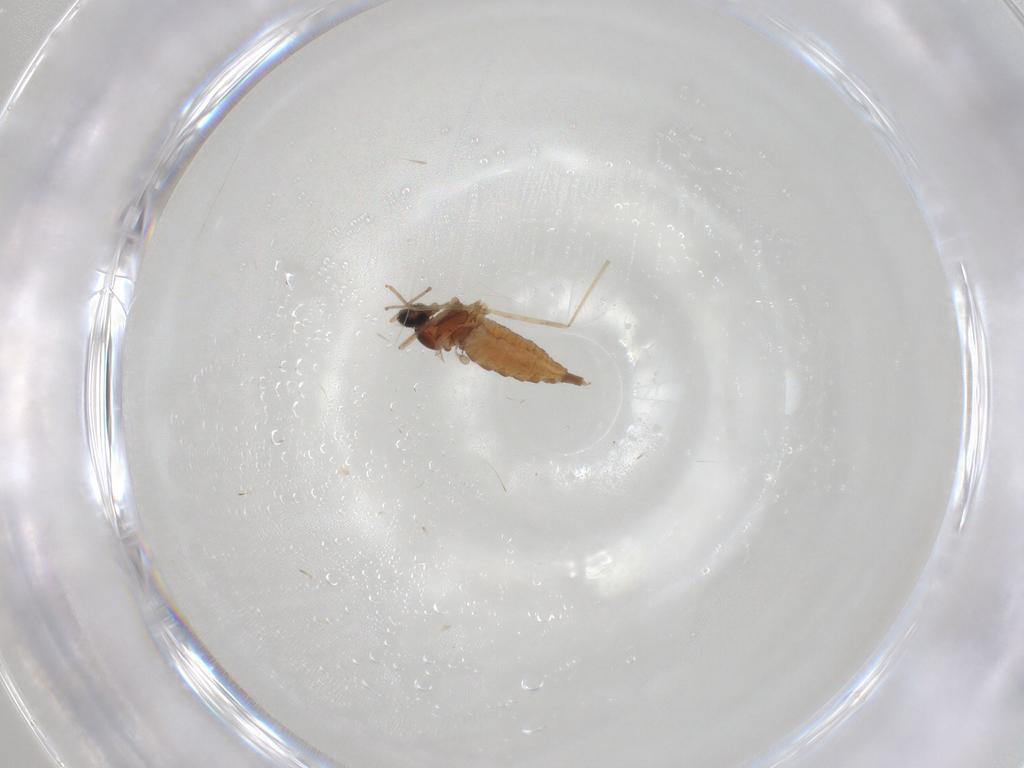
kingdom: Animalia
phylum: Arthropoda
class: Insecta
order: Diptera
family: Cecidomyiidae
